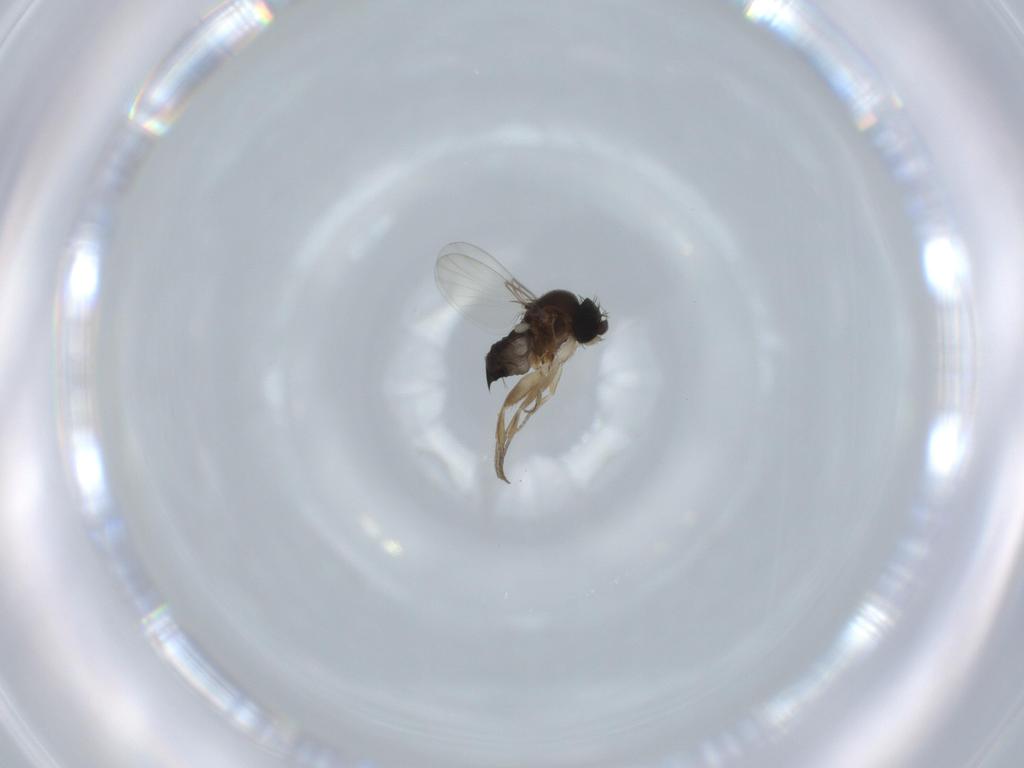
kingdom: Animalia
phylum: Arthropoda
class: Insecta
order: Diptera
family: Phoridae
